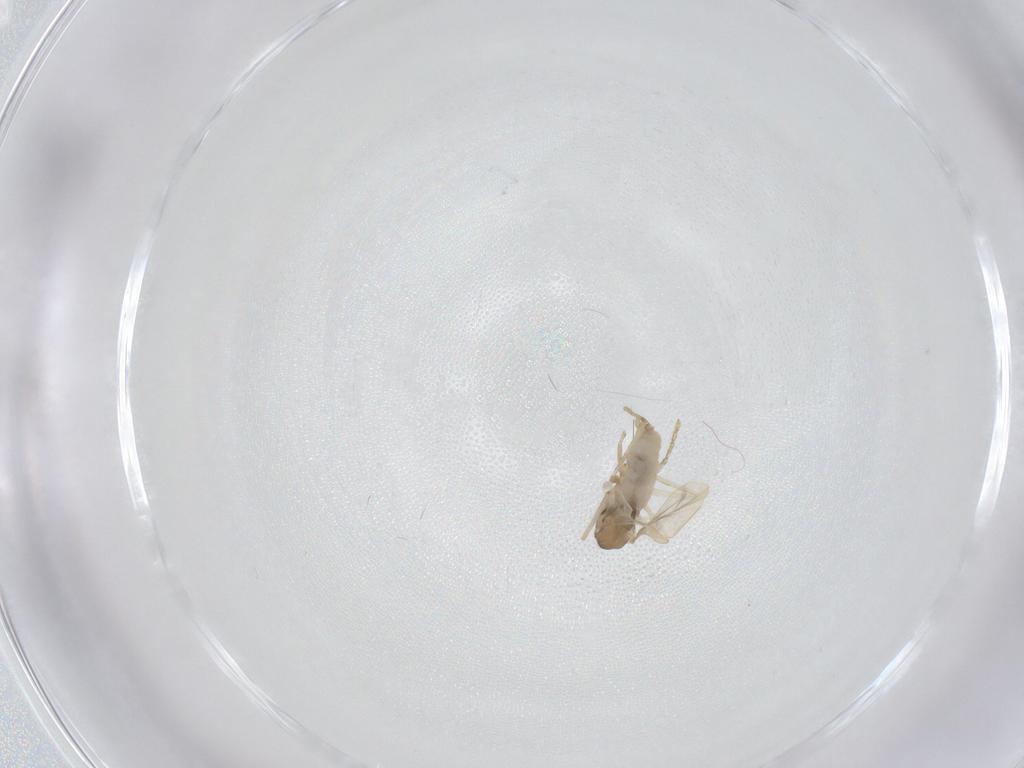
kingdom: Animalia
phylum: Arthropoda
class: Insecta
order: Diptera
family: Cecidomyiidae
